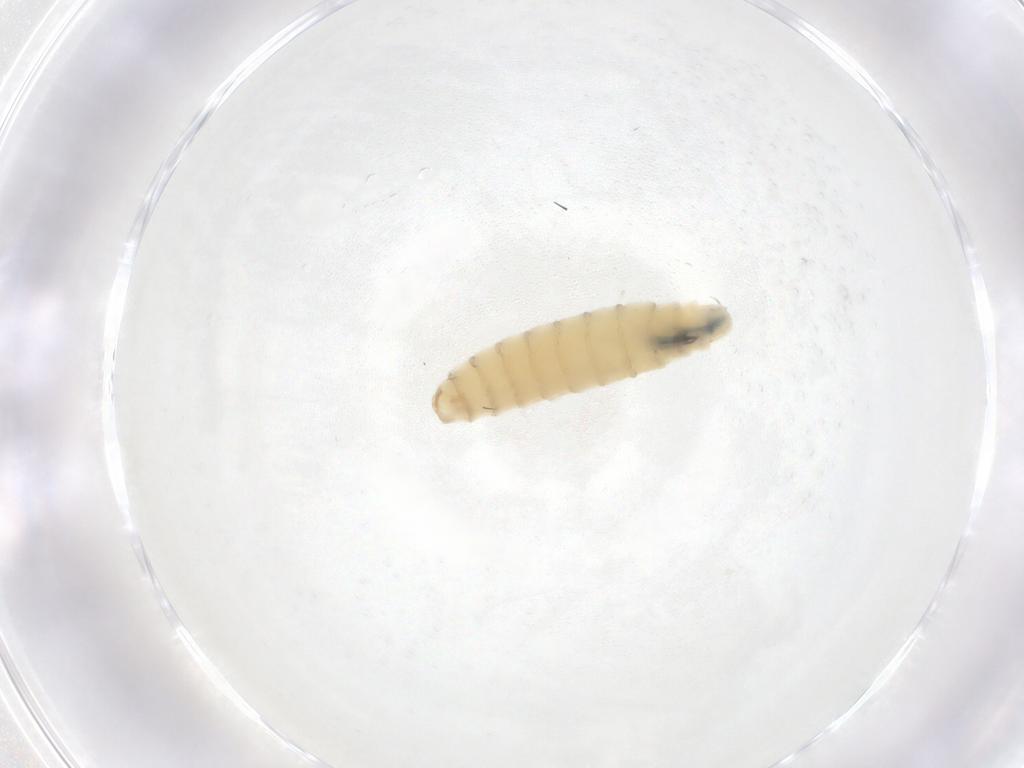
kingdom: Animalia
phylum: Arthropoda
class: Insecta
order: Diptera
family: Sarcophagidae
